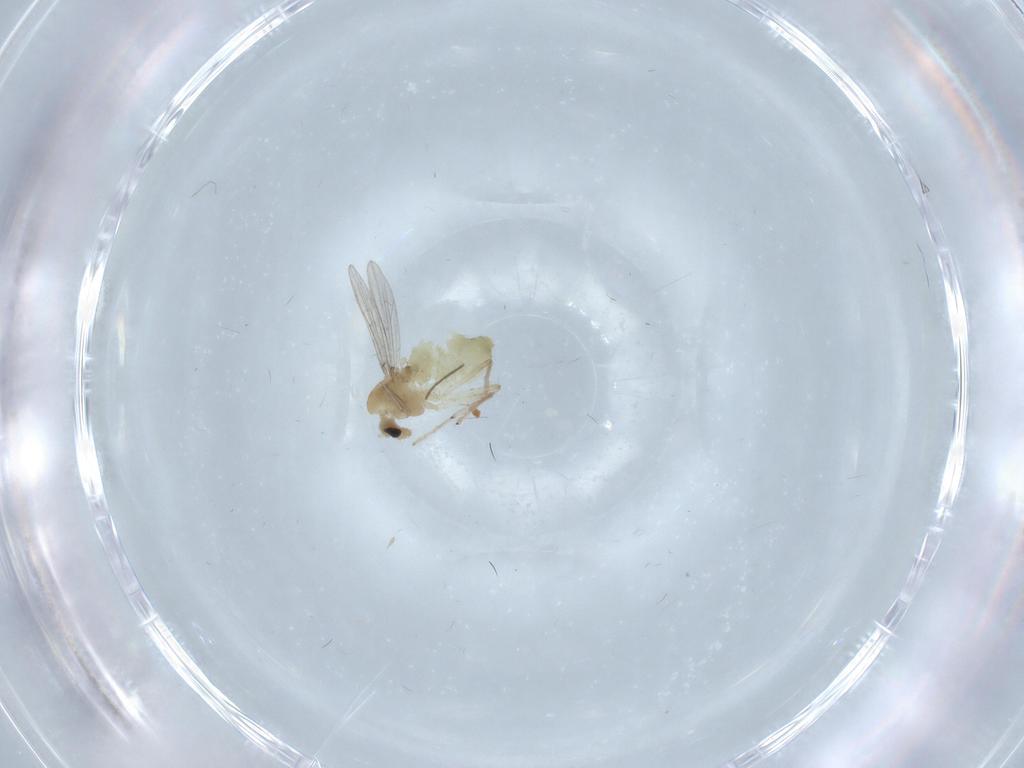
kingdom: Animalia
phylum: Arthropoda
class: Insecta
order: Diptera
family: Chironomidae
